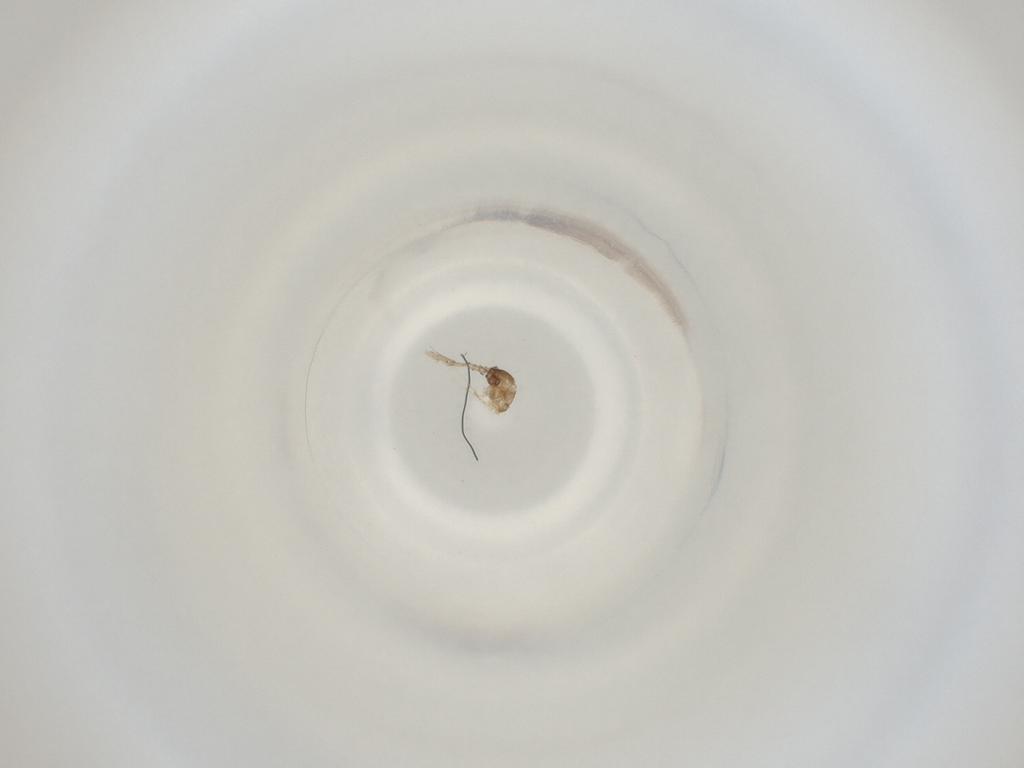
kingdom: Animalia
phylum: Arthropoda
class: Insecta
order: Diptera
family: Cecidomyiidae
